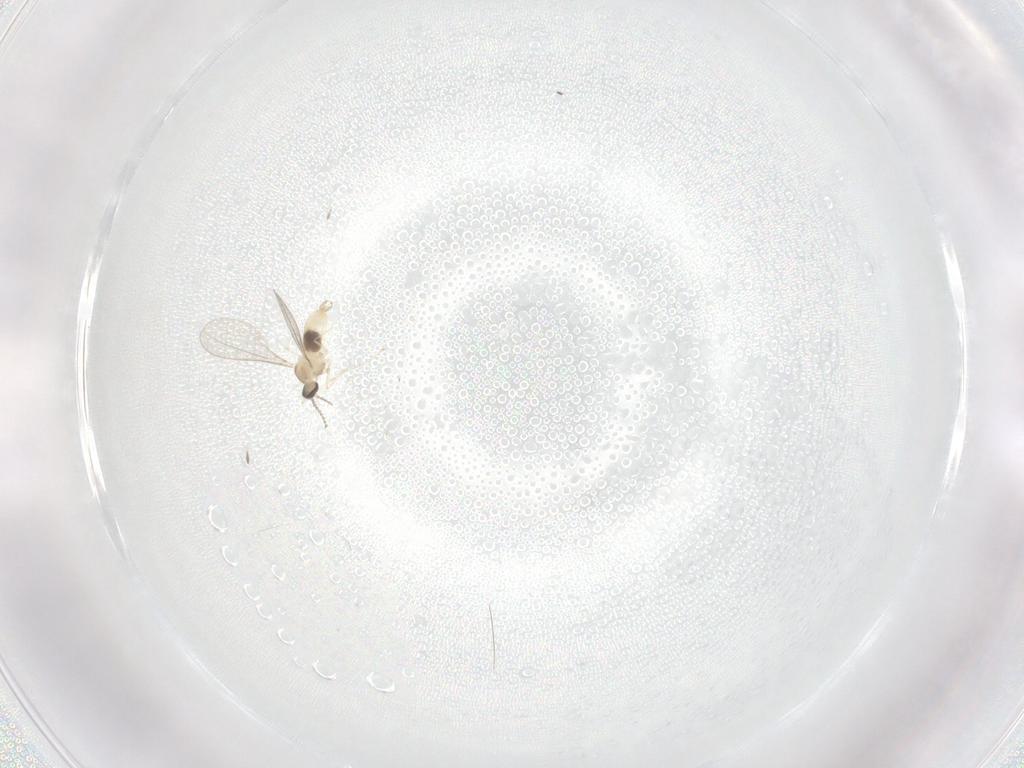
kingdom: Animalia
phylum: Arthropoda
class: Insecta
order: Diptera
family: Cecidomyiidae
